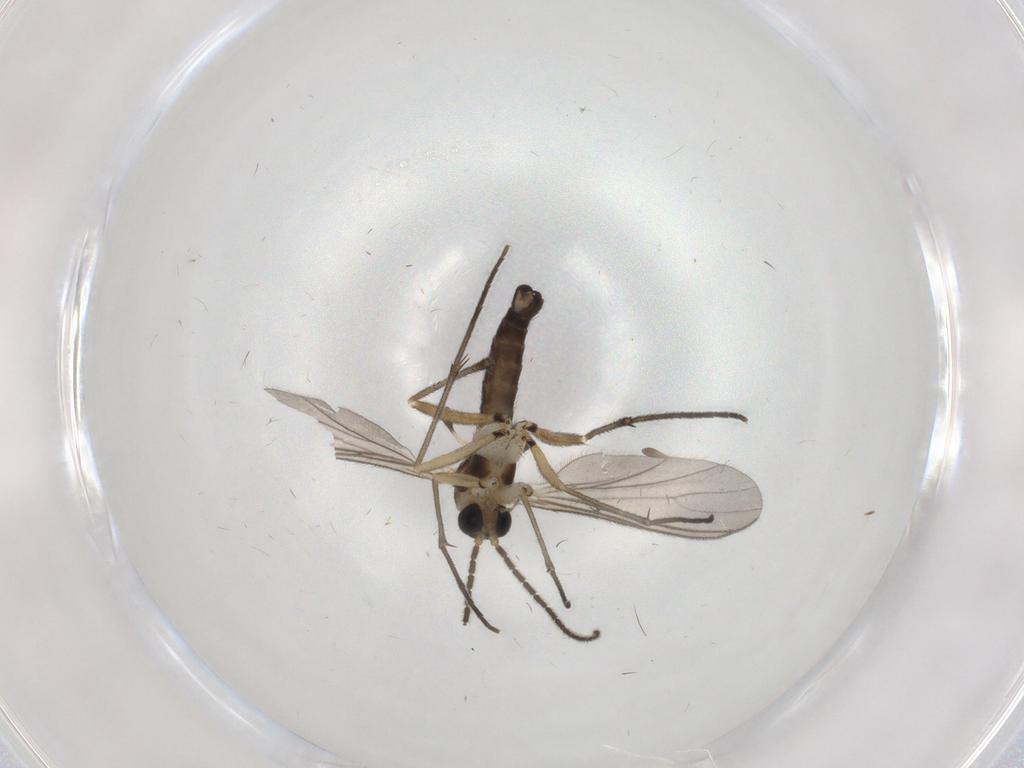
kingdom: Animalia
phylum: Arthropoda
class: Insecta
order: Diptera
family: Sciaridae
